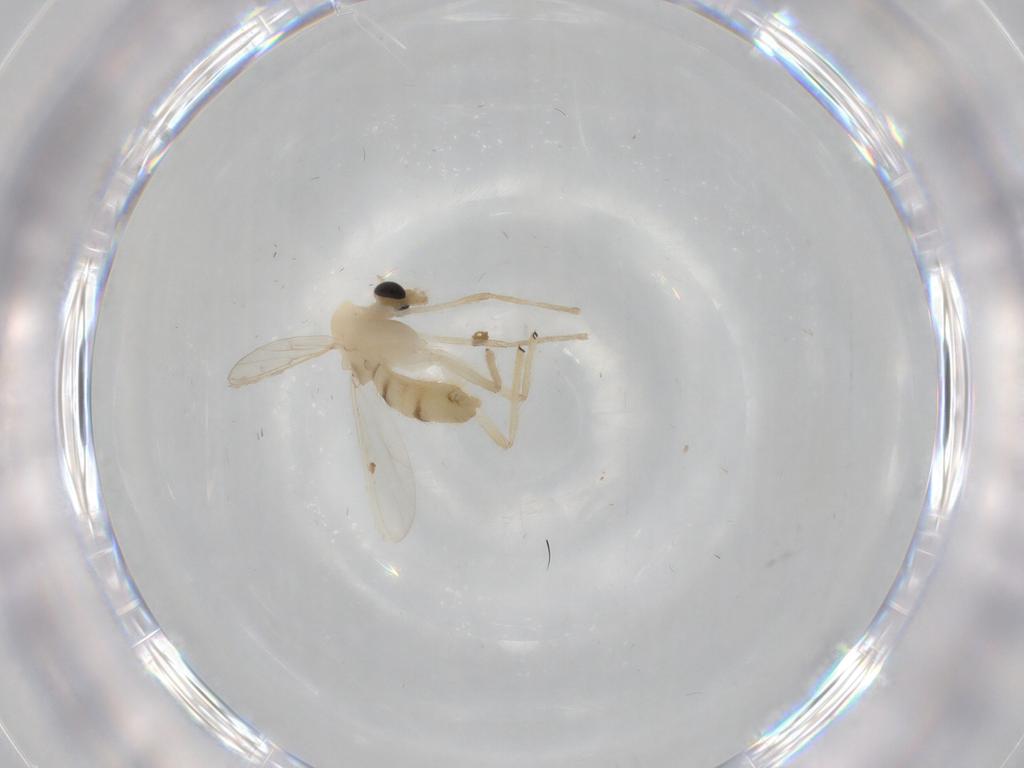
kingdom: Animalia
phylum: Arthropoda
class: Insecta
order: Diptera
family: Chironomidae
